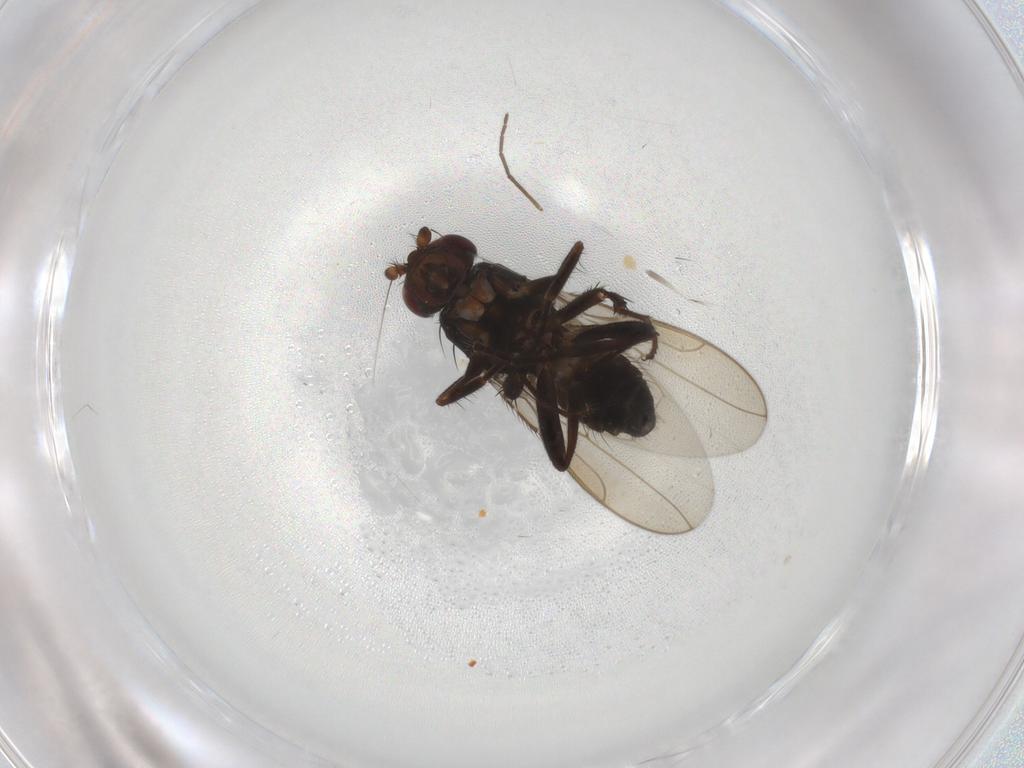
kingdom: Animalia
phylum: Arthropoda
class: Insecta
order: Diptera
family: Sphaeroceridae
